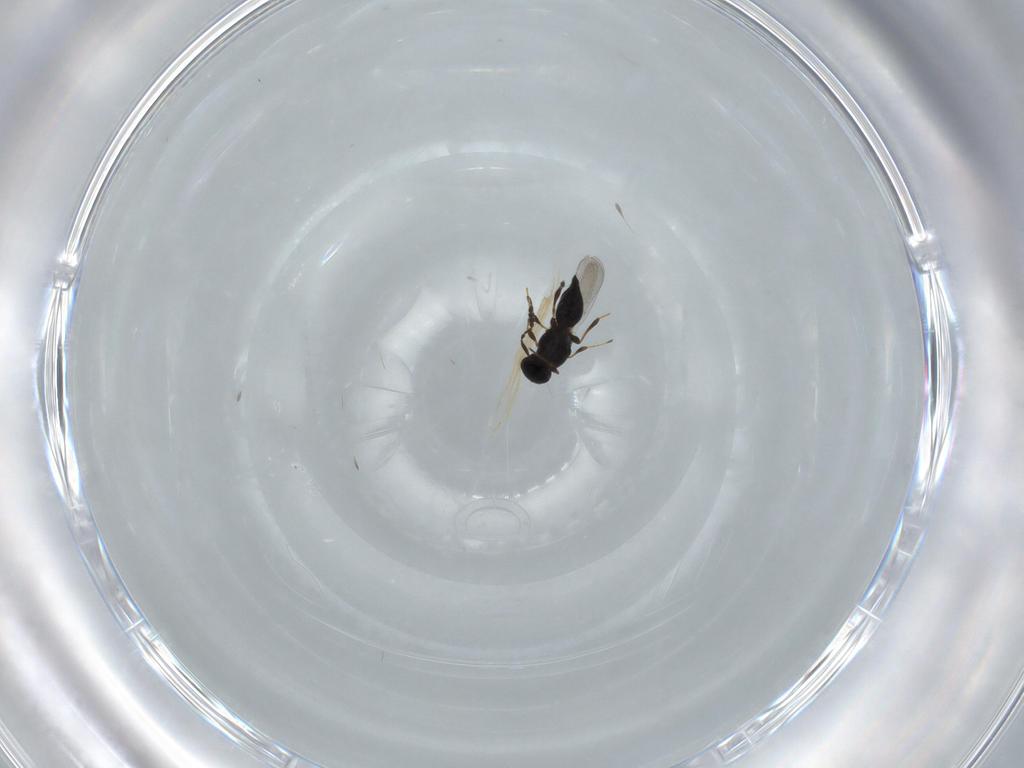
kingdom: Animalia
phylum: Arthropoda
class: Insecta
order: Hymenoptera
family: Platygastridae
